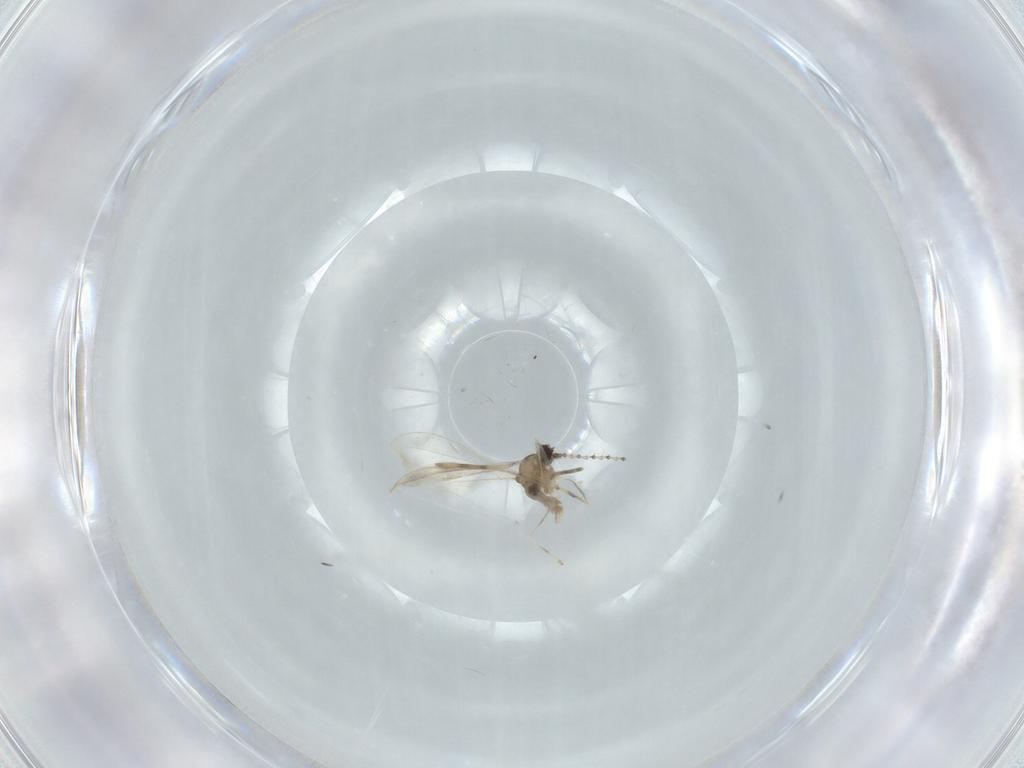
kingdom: Animalia
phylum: Arthropoda
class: Insecta
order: Diptera
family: Cecidomyiidae
